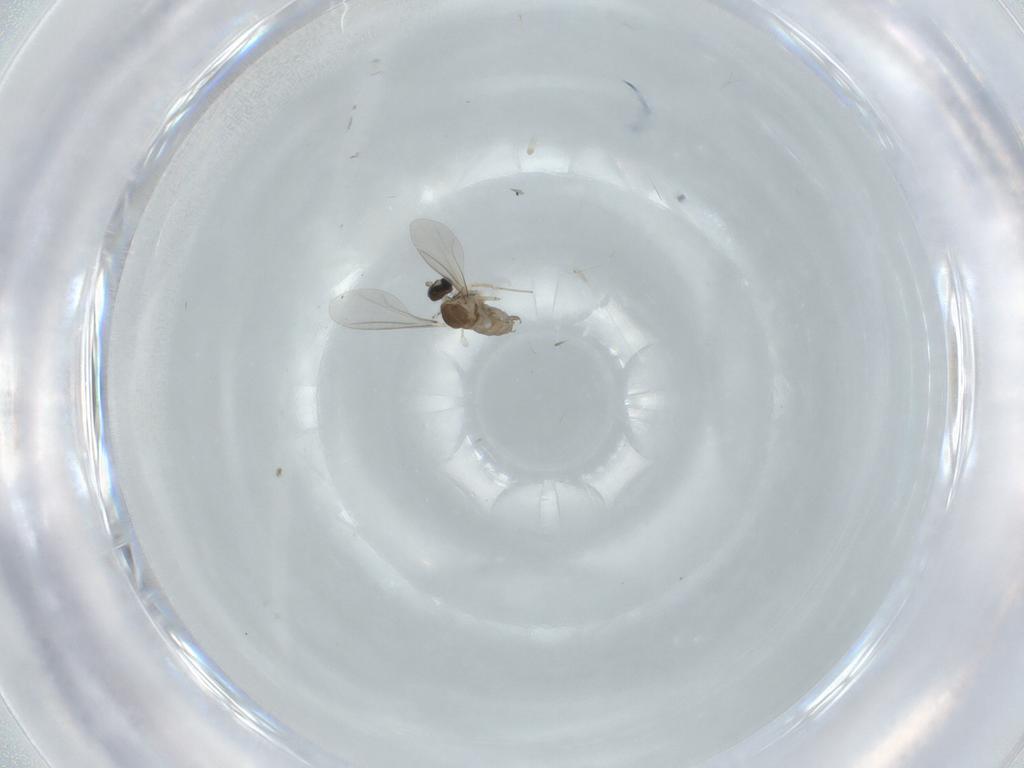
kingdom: Animalia
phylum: Arthropoda
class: Insecta
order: Diptera
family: Cecidomyiidae
